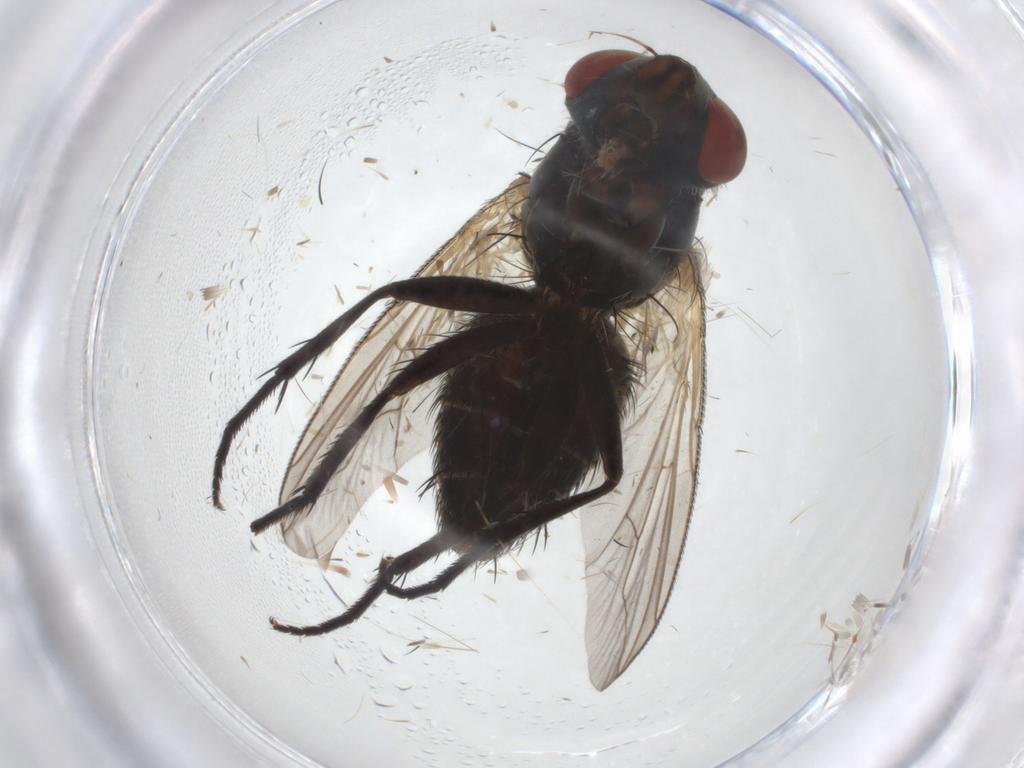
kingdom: Animalia
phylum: Arthropoda
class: Insecta
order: Diptera
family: Sarcophagidae
